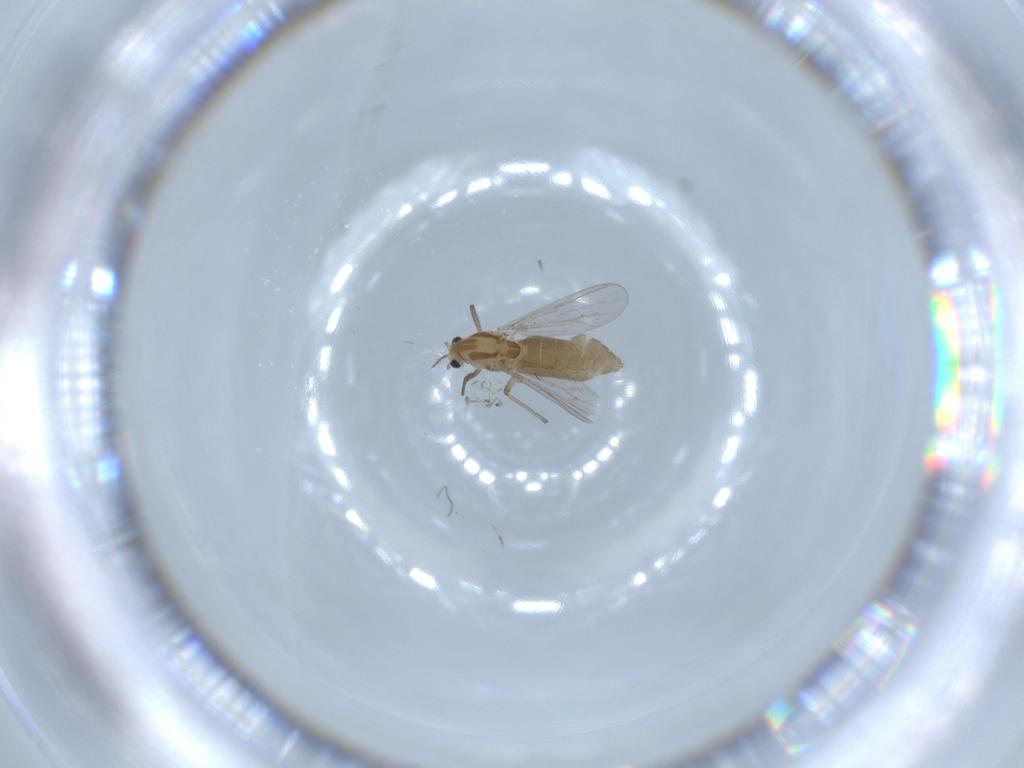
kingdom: Animalia
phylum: Arthropoda
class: Insecta
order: Diptera
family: Chironomidae
